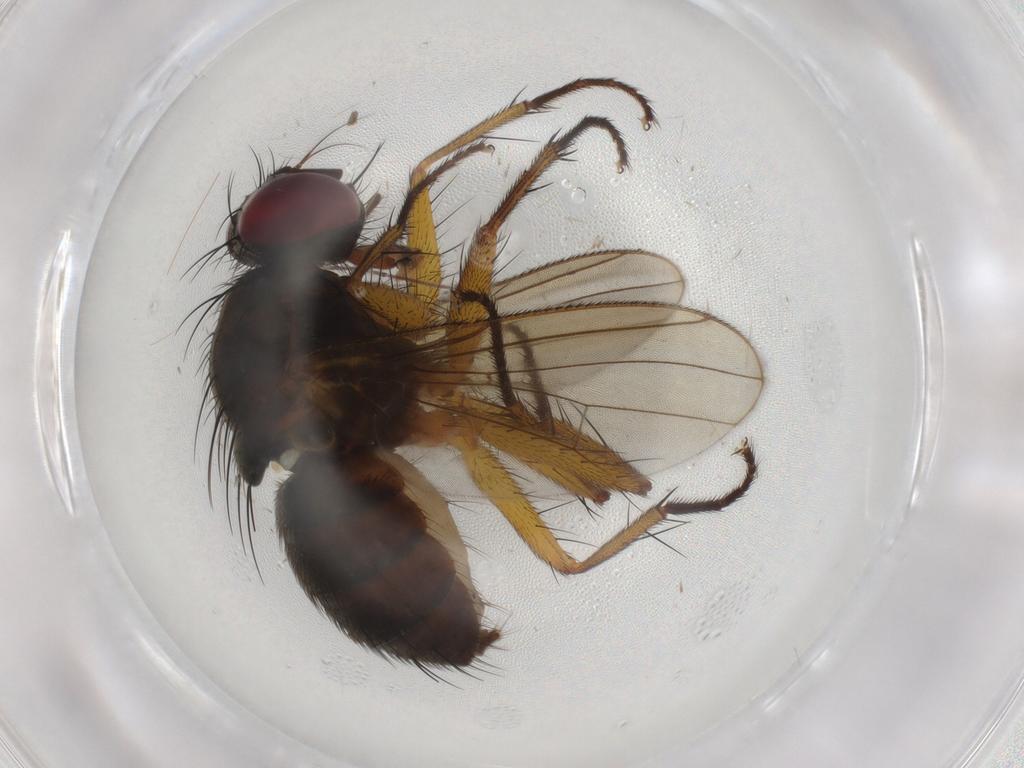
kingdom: Animalia
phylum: Arthropoda
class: Insecta
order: Diptera
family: Muscidae
